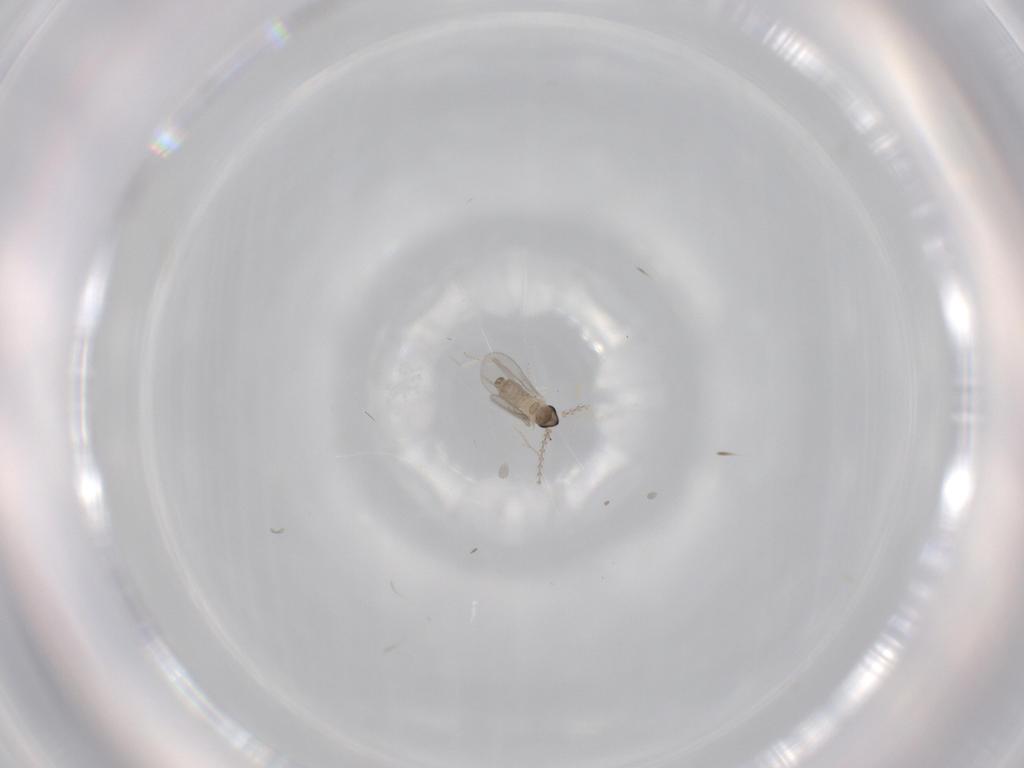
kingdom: Animalia
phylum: Arthropoda
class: Insecta
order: Diptera
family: Cecidomyiidae
